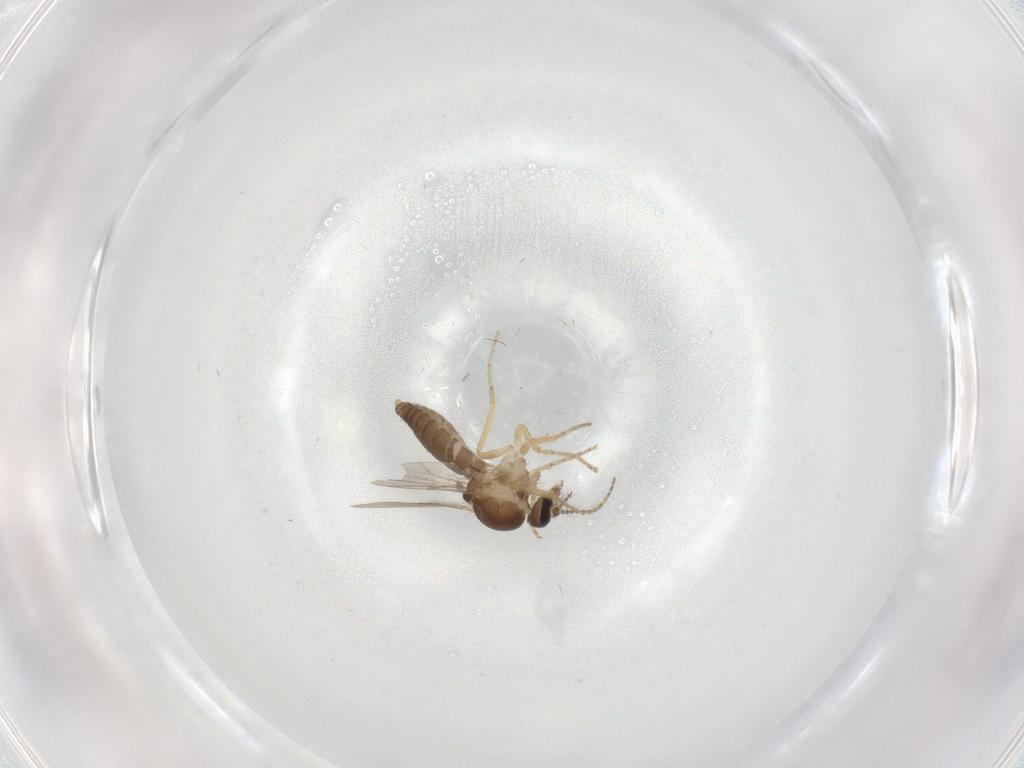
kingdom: Animalia
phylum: Arthropoda
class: Insecta
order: Diptera
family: Ceratopogonidae
